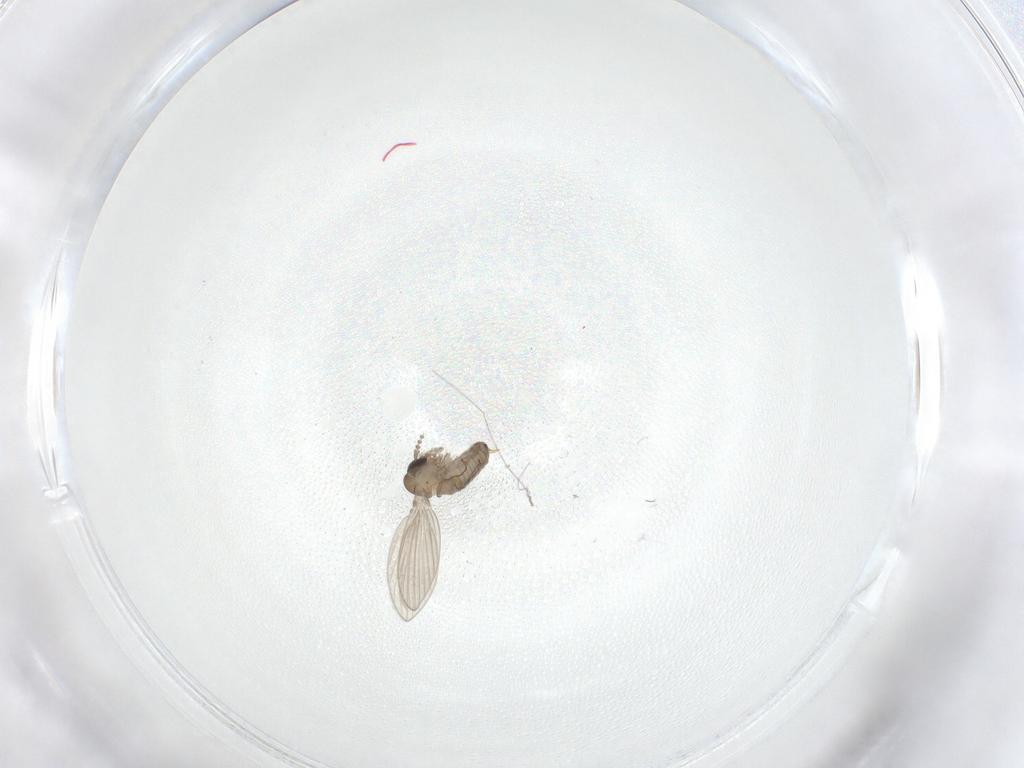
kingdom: Animalia
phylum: Arthropoda
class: Insecta
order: Diptera
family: Psychodidae
